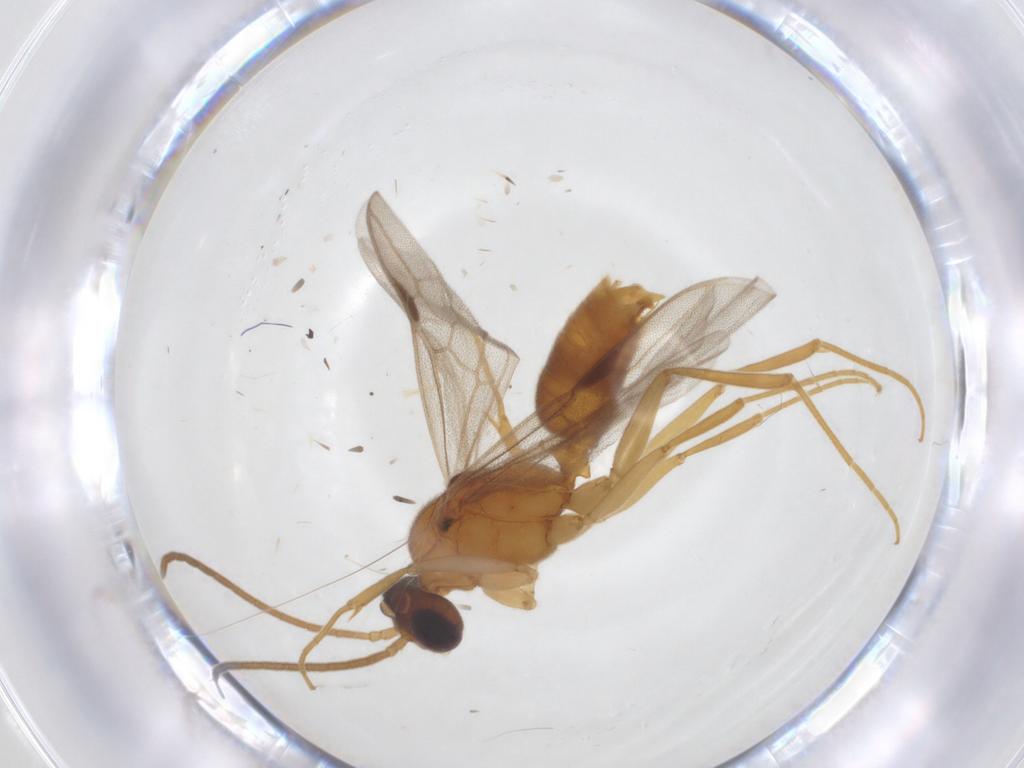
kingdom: Animalia
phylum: Arthropoda
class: Insecta
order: Hymenoptera
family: Formicidae
